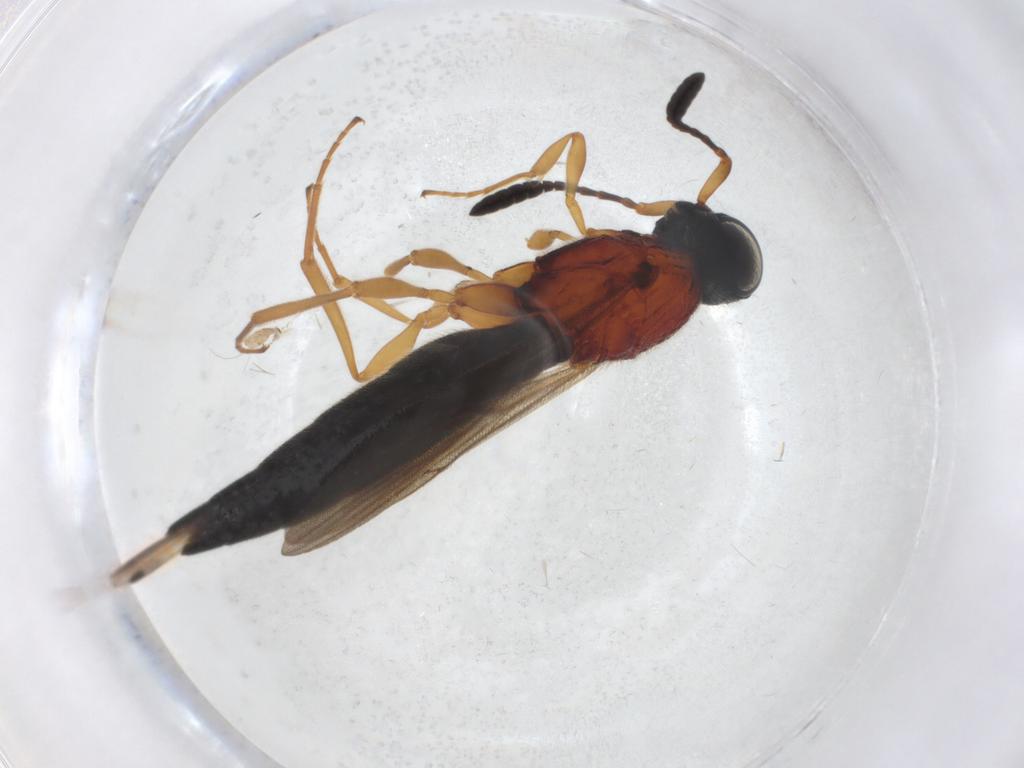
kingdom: Animalia
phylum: Arthropoda
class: Insecta
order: Hymenoptera
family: Scelionidae
